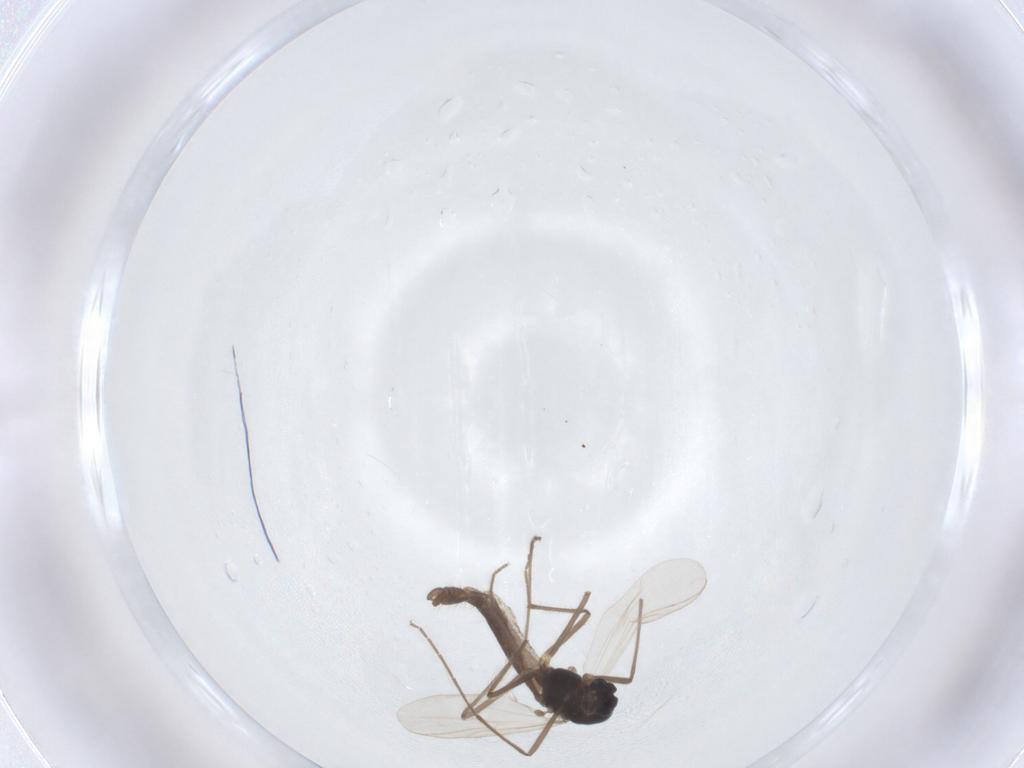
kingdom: Animalia
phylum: Arthropoda
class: Insecta
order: Diptera
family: Chironomidae
